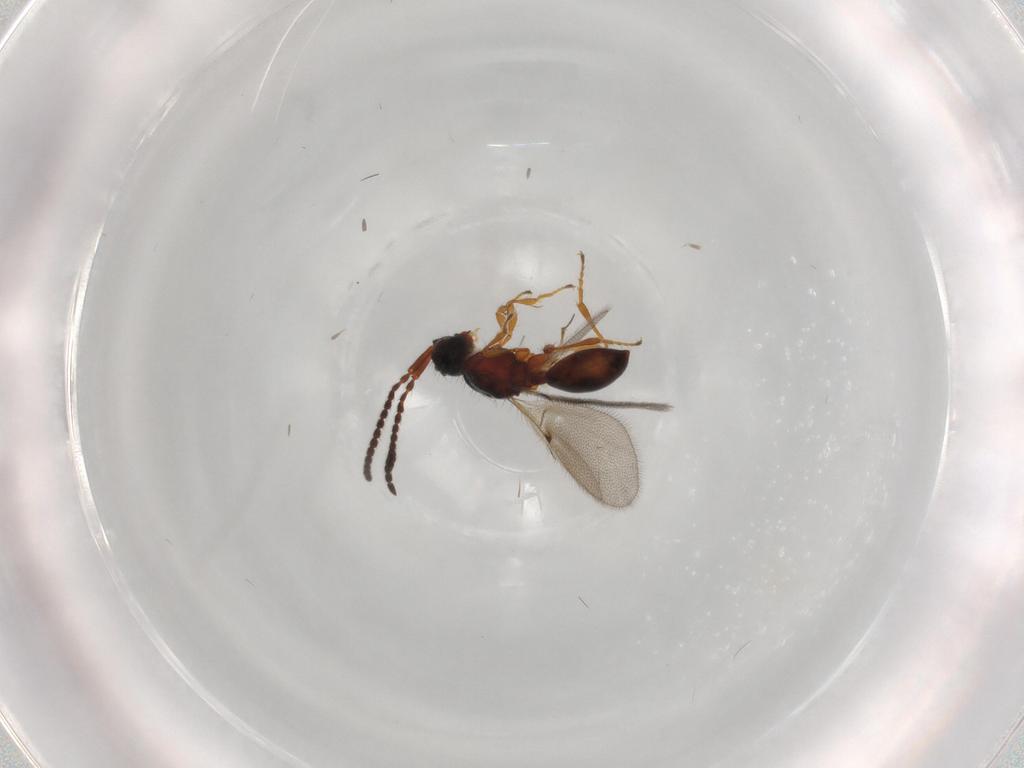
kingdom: Animalia
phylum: Arthropoda
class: Insecta
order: Hymenoptera
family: Diapriidae
